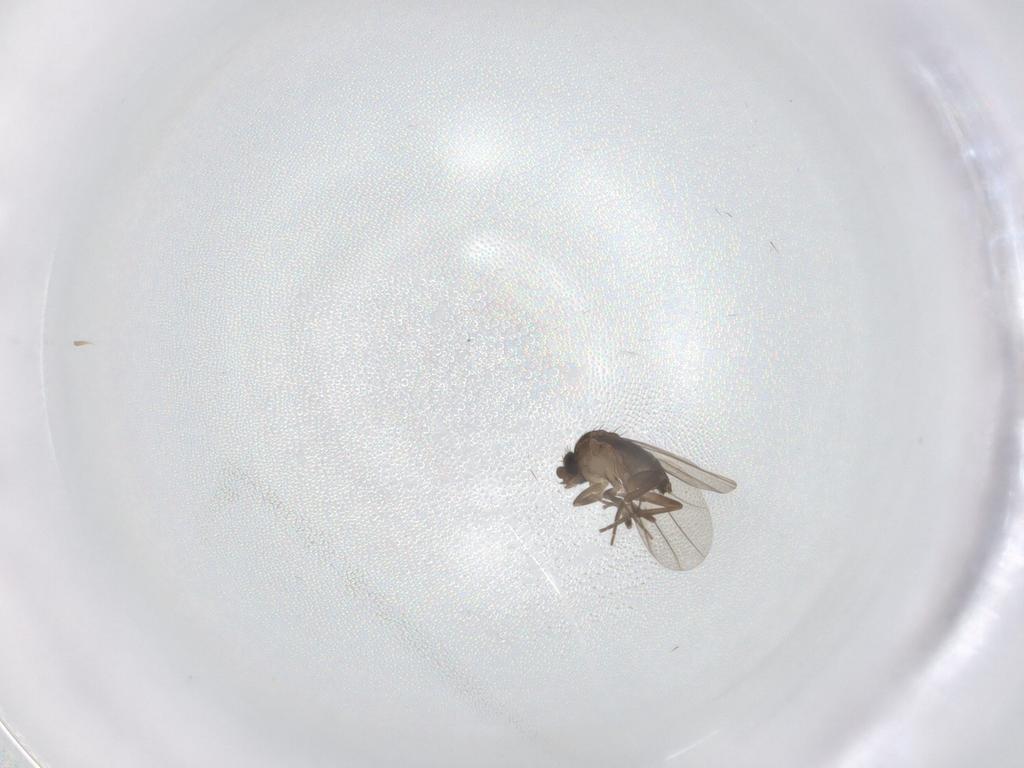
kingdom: Animalia
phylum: Arthropoda
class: Insecta
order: Diptera
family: Phoridae
